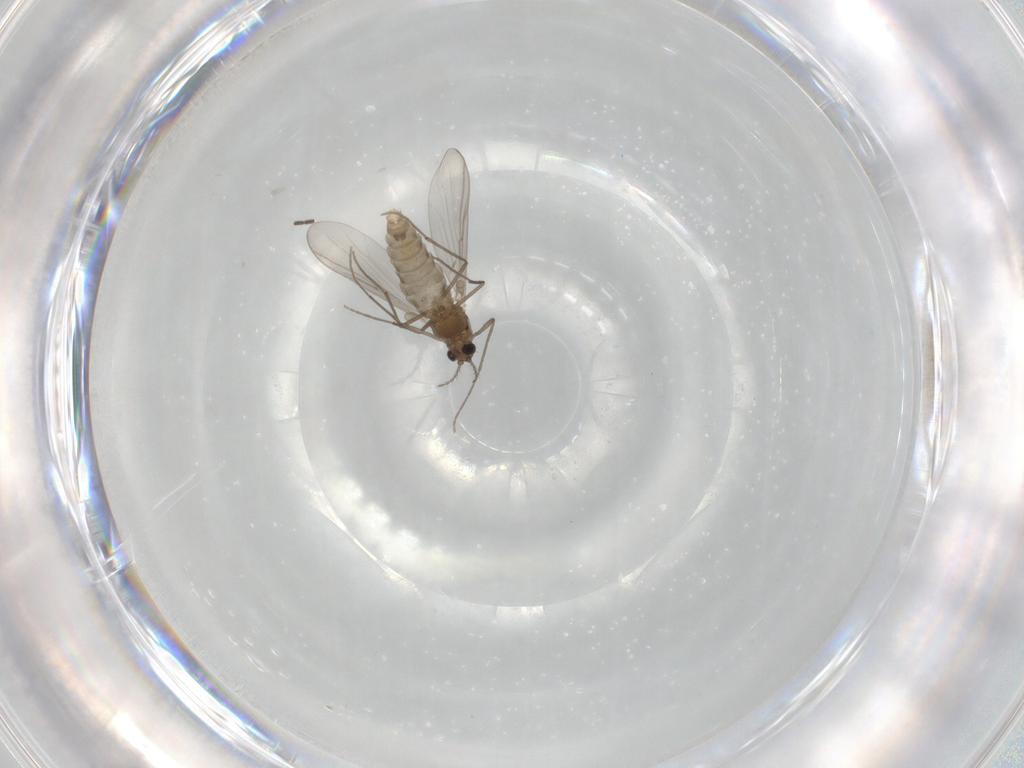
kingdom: Animalia
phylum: Arthropoda
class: Insecta
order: Diptera
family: Chironomidae
